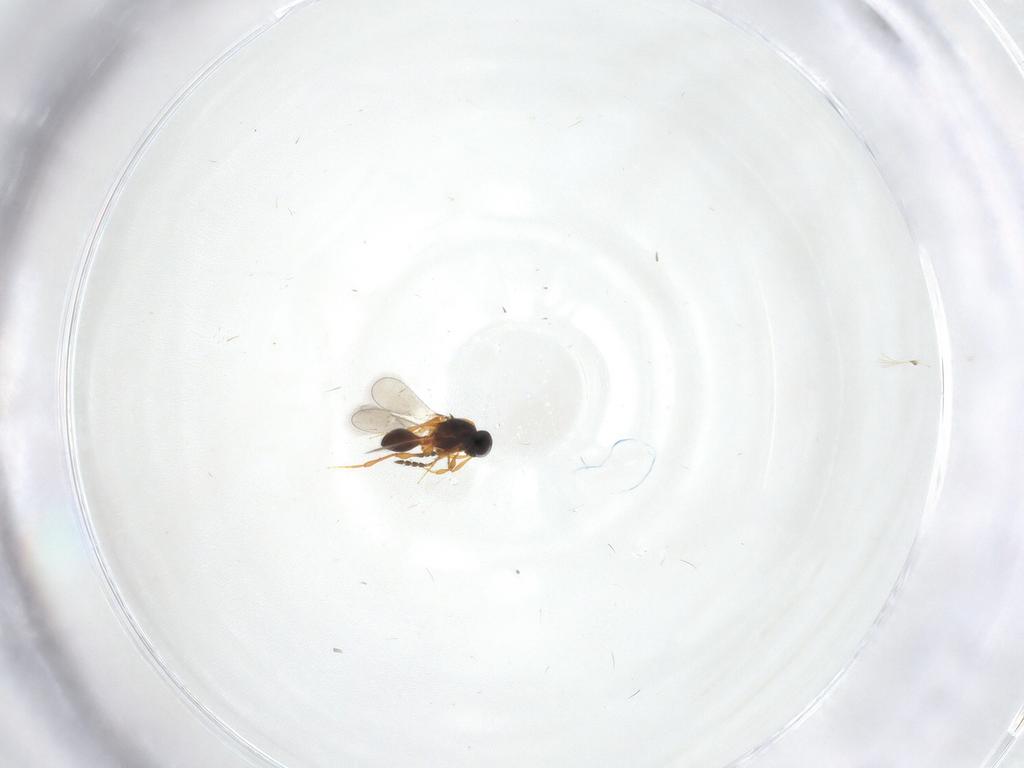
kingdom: Animalia
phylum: Arthropoda
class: Insecta
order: Hymenoptera
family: Platygastridae
